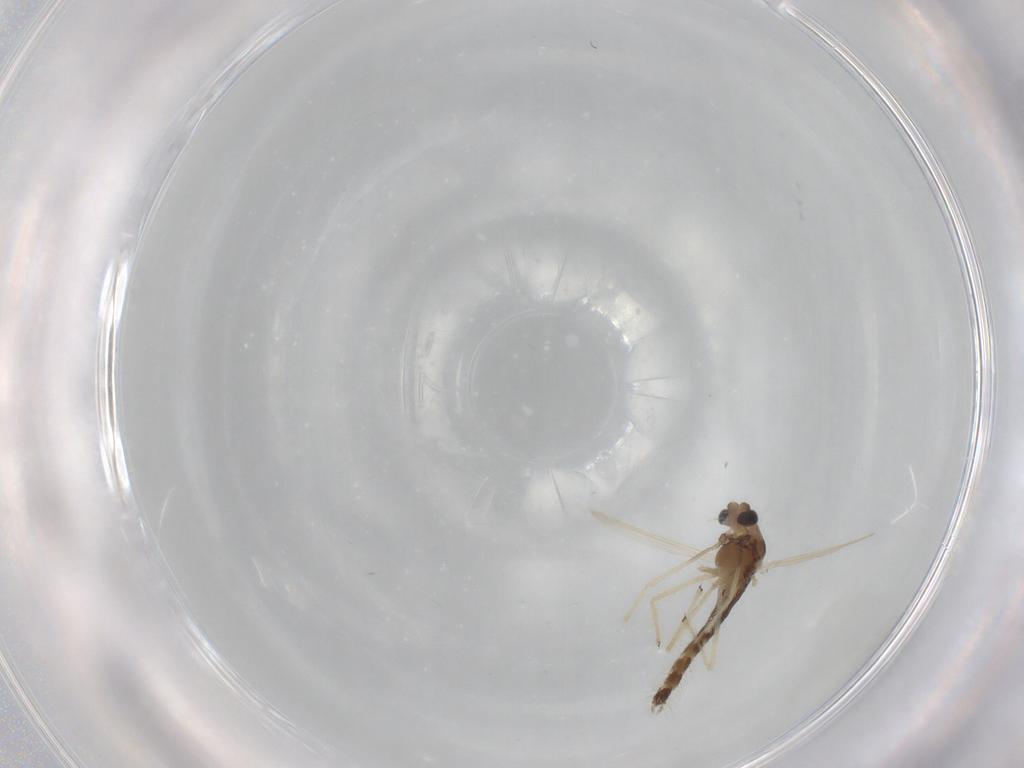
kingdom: Animalia
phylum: Arthropoda
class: Insecta
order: Diptera
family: Chironomidae
